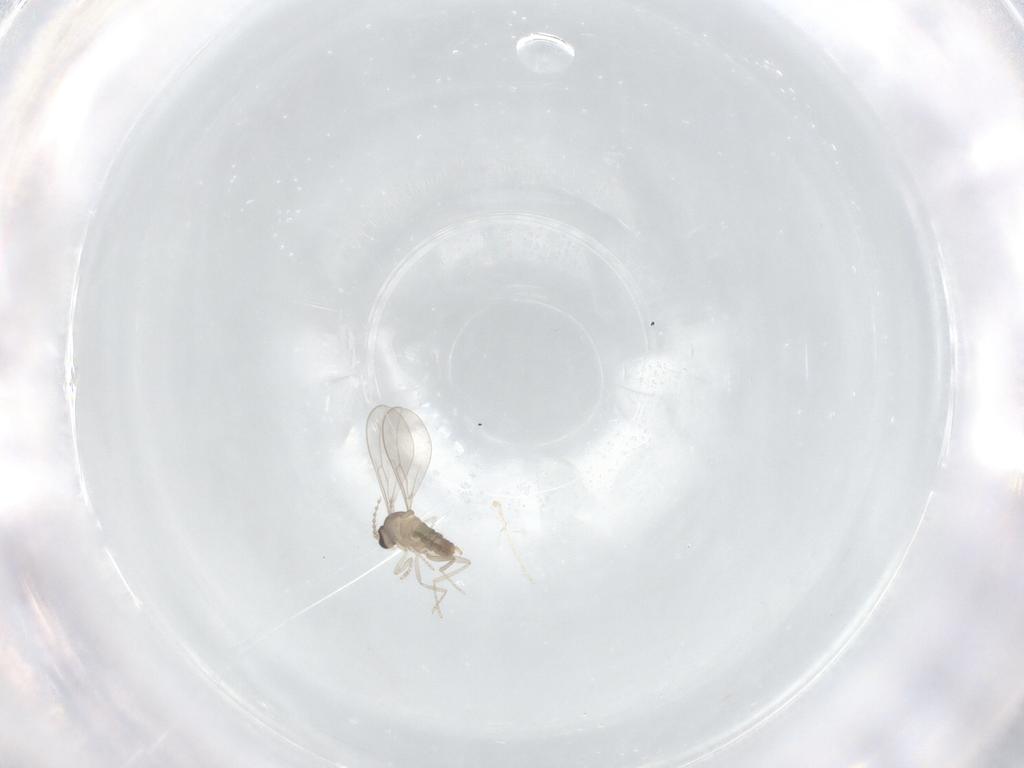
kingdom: Animalia
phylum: Arthropoda
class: Insecta
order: Diptera
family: Cecidomyiidae
